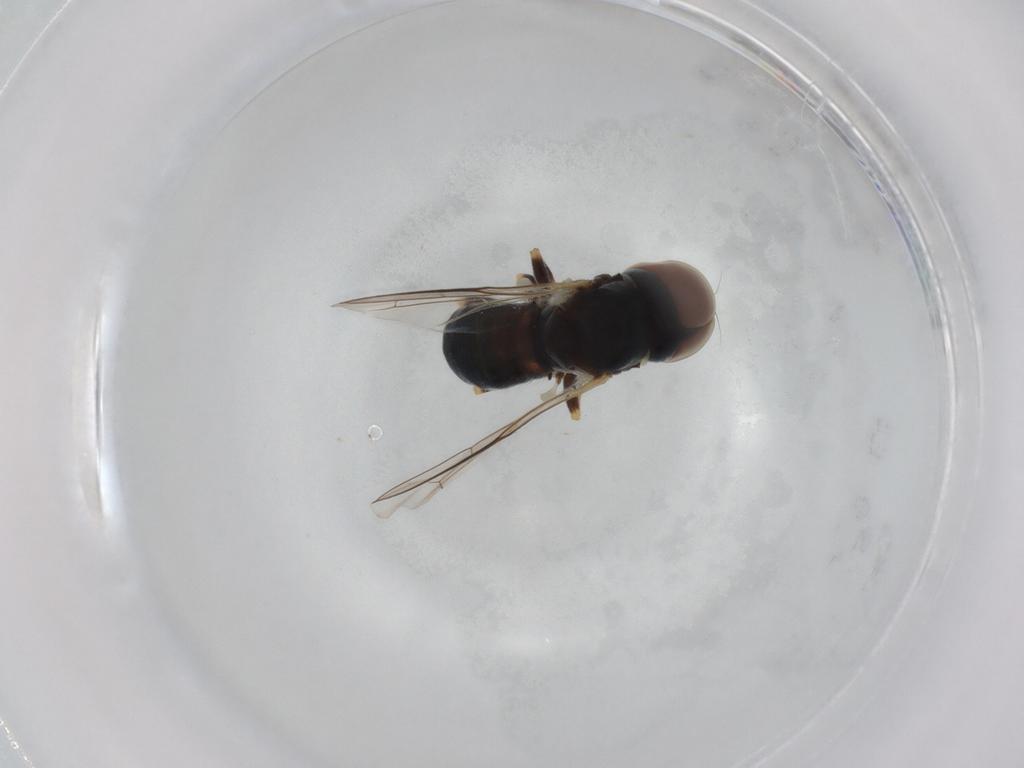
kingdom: Animalia
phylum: Arthropoda
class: Insecta
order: Diptera
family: Pipunculidae
